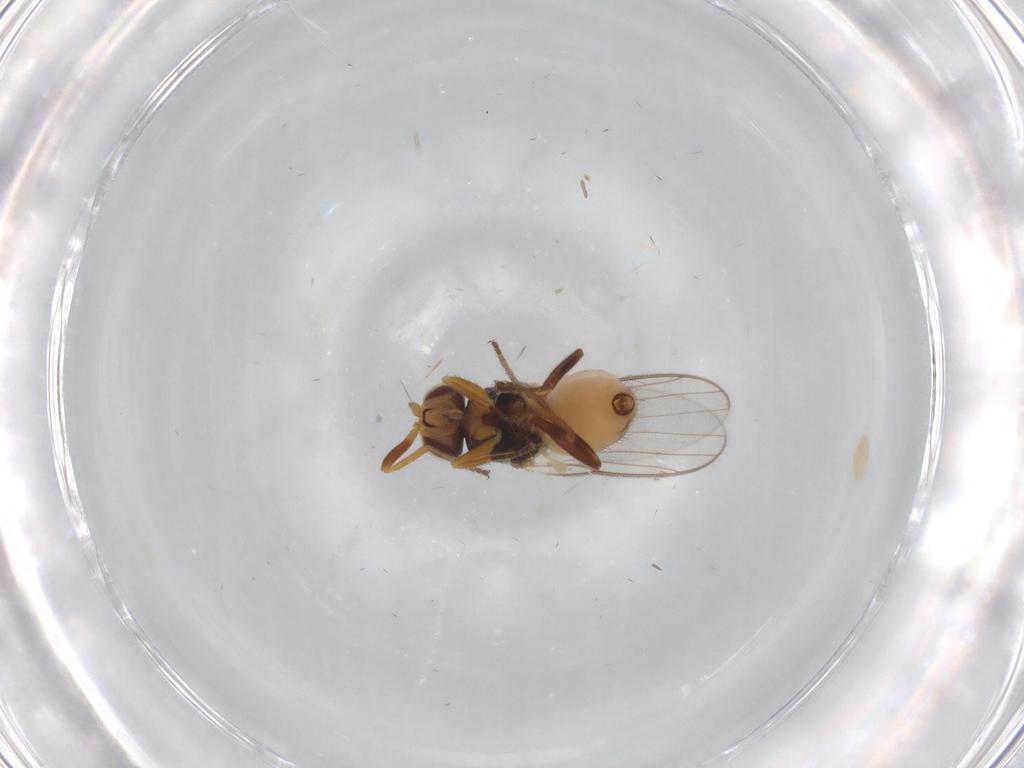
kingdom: Animalia
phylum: Arthropoda
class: Insecta
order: Diptera
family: Chloropidae
